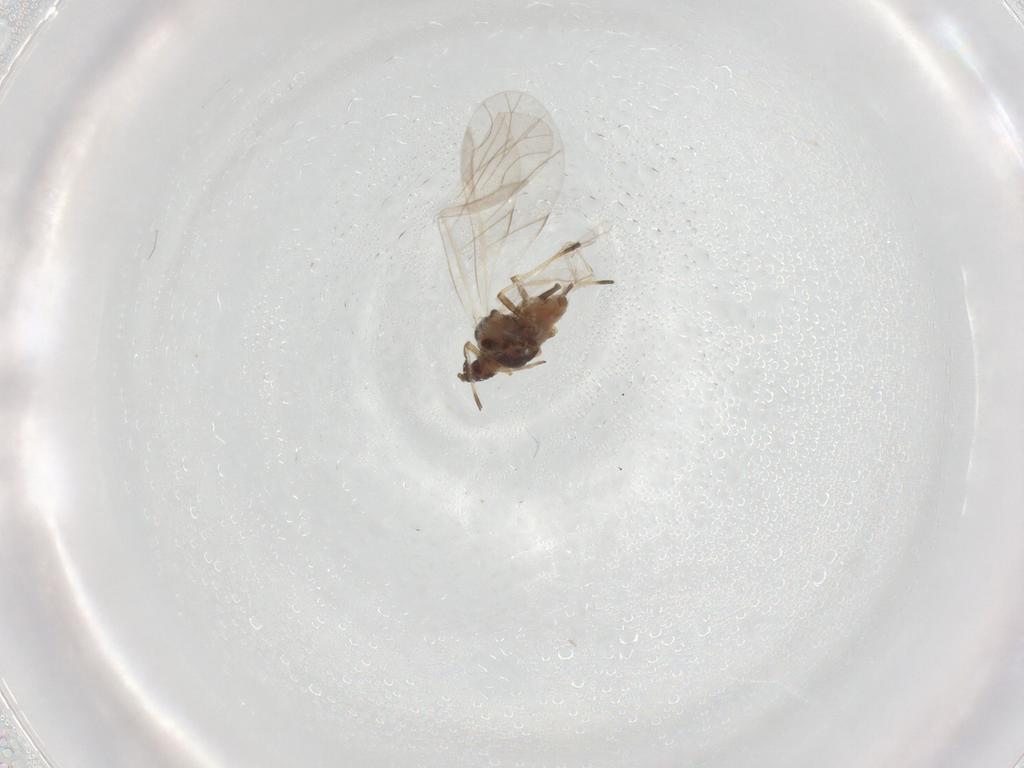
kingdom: Animalia
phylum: Arthropoda
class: Insecta
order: Hemiptera
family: Aphididae
